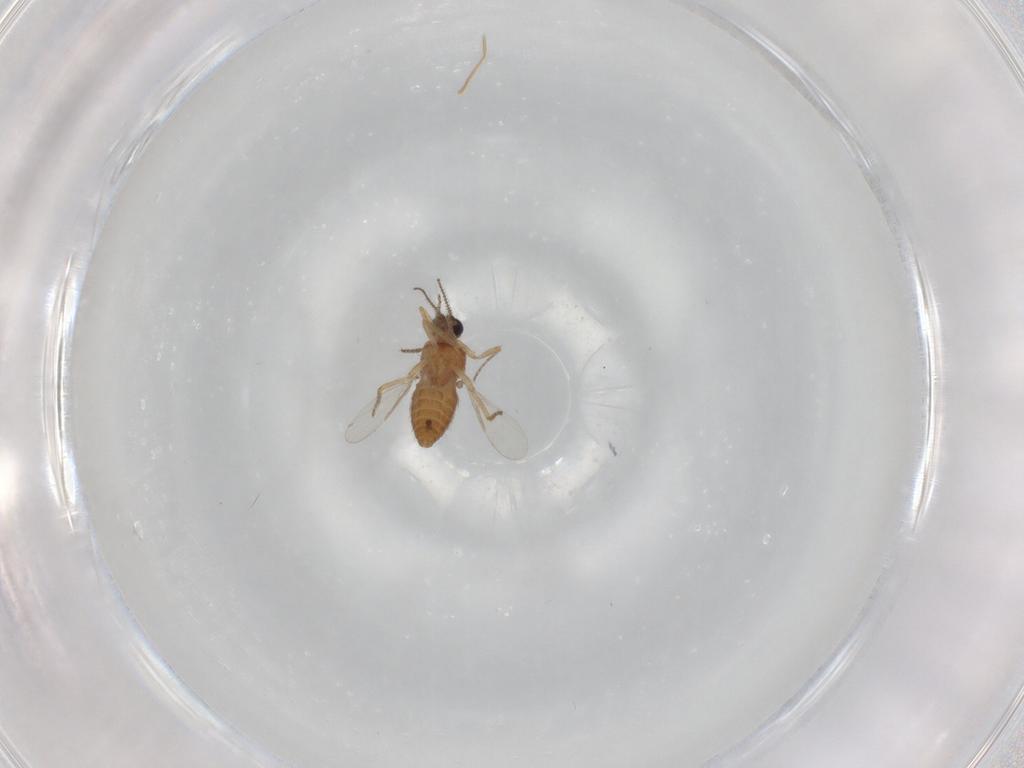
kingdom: Animalia
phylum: Arthropoda
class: Insecta
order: Diptera
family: Ceratopogonidae
